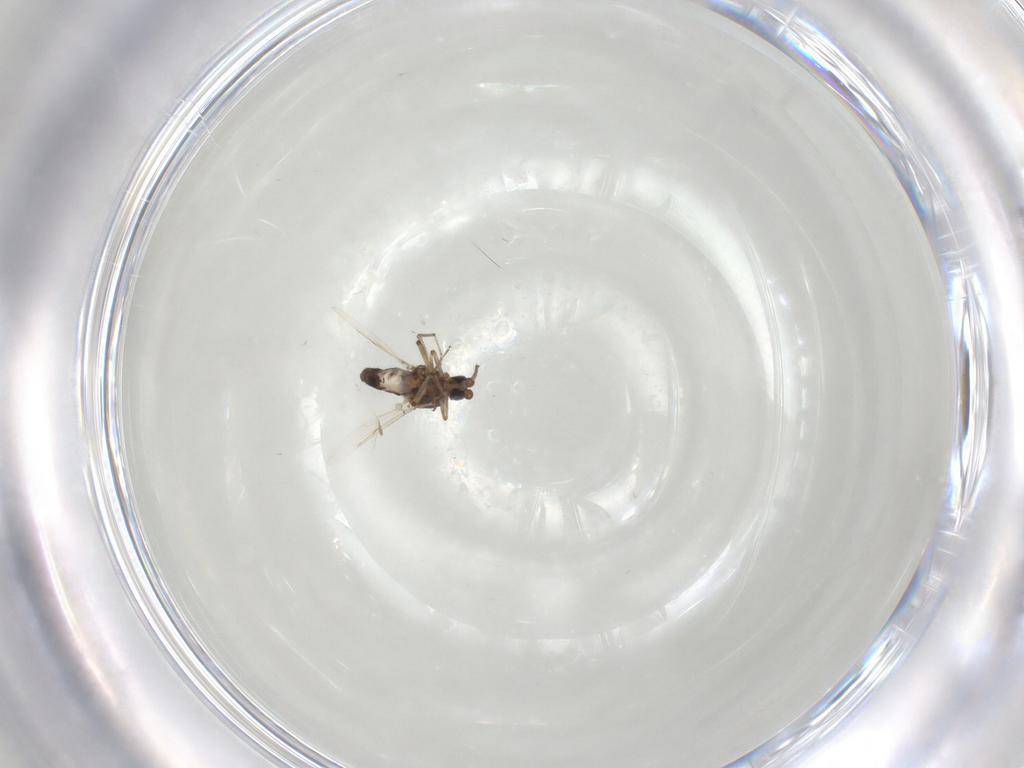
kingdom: Animalia
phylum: Arthropoda
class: Insecta
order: Diptera
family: Ceratopogonidae
